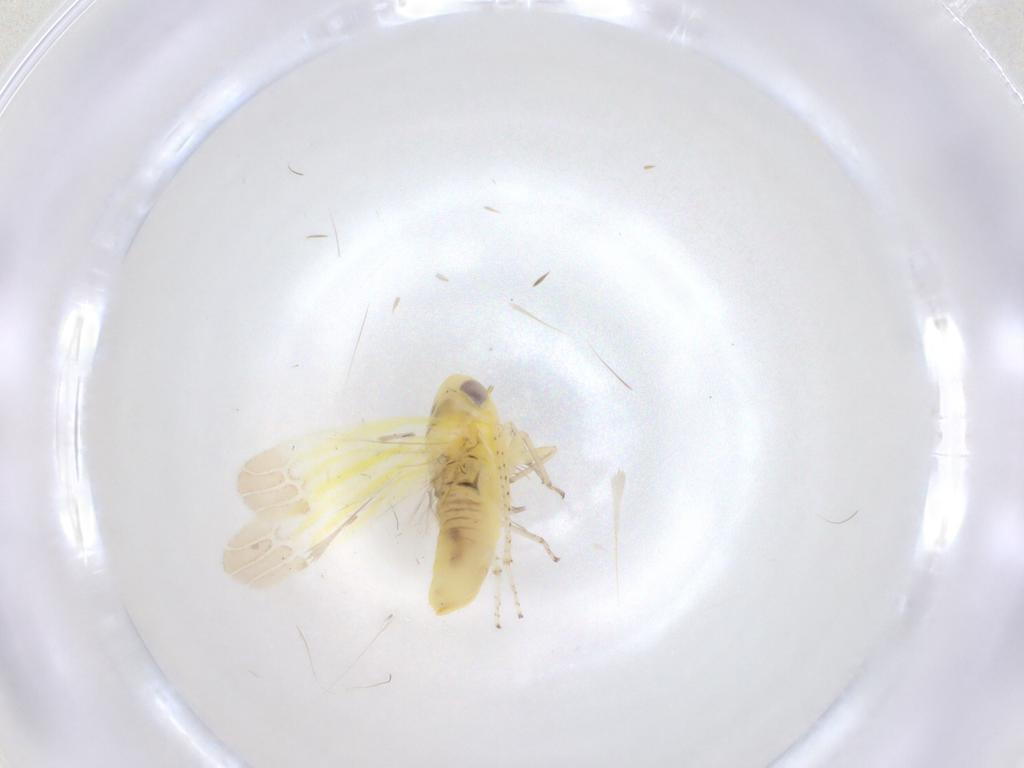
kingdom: Animalia
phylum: Arthropoda
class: Insecta
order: Hemiptera
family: Cicadellidae
